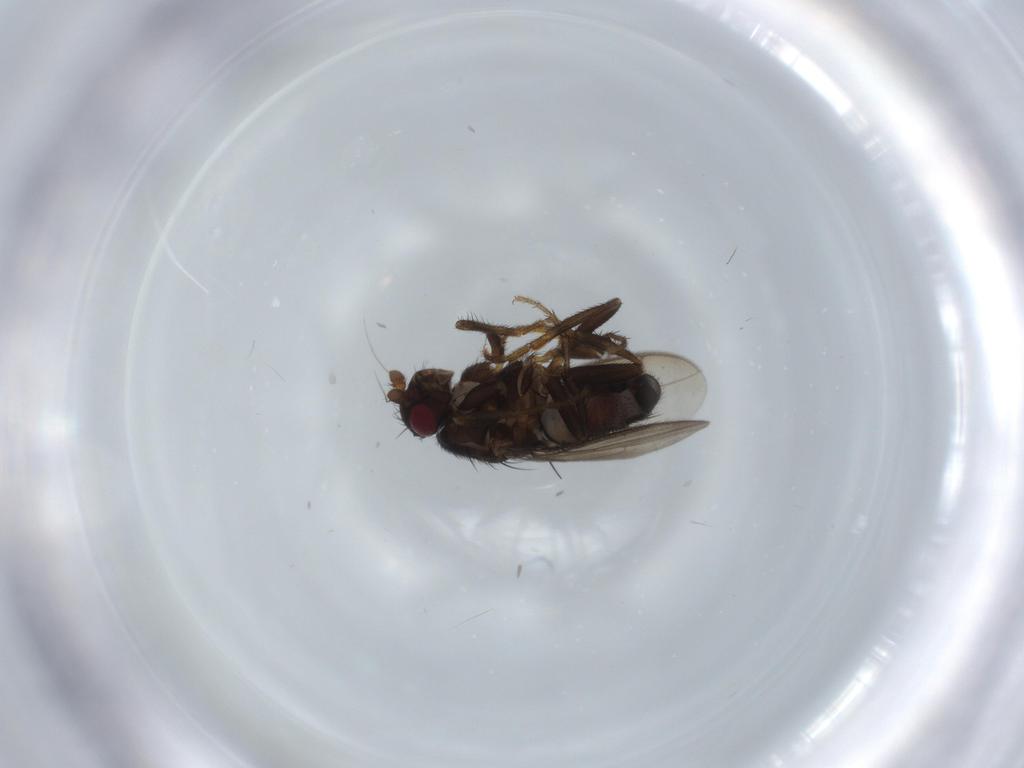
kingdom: Animalia
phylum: Arthropoda
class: Insecta
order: Diptera
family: Sphaeroceridae
